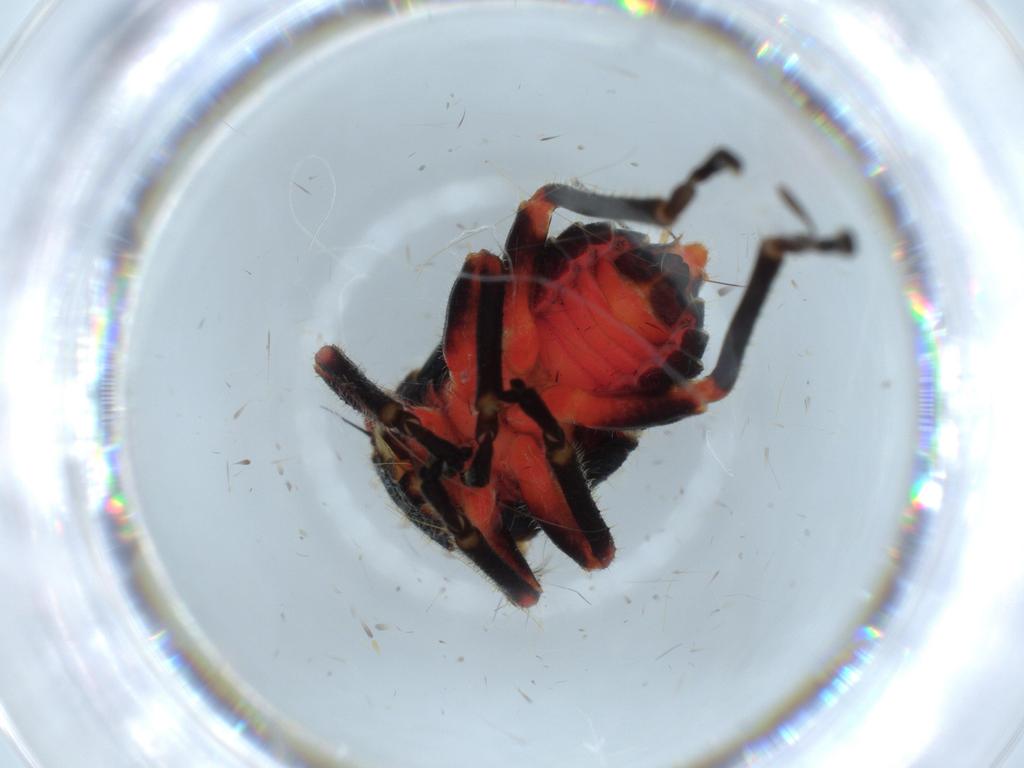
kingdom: Animalia
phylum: Arthropoda
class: Insecta
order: Hemiptera
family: Cicadellidae
